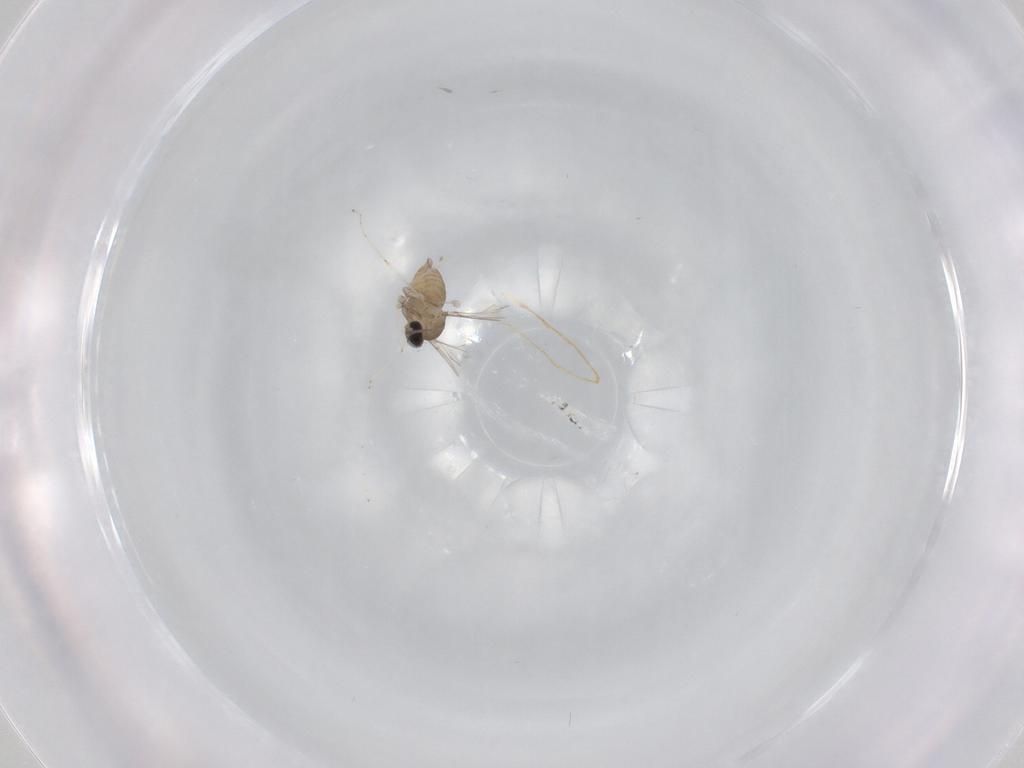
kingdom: Animalia
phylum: Arthropoda
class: Insecta
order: Diptera
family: Cecidomyiidae
